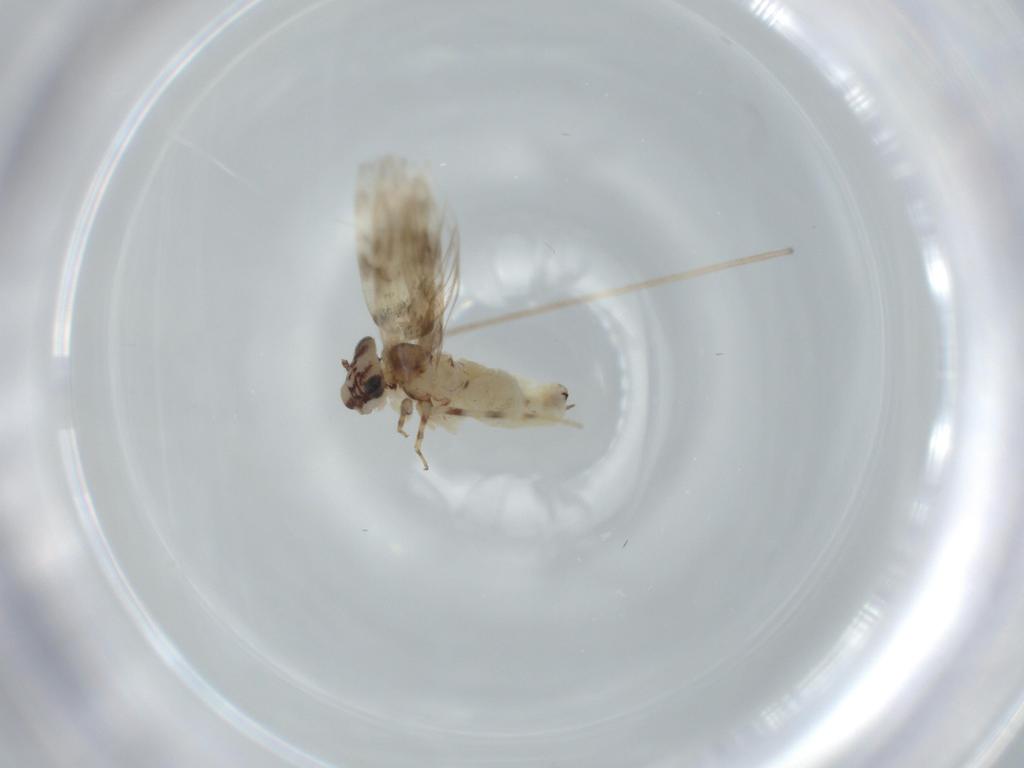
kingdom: Animalia
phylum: Arthropoda
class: Insecta
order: Psocodea
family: Lepidopsocidae
